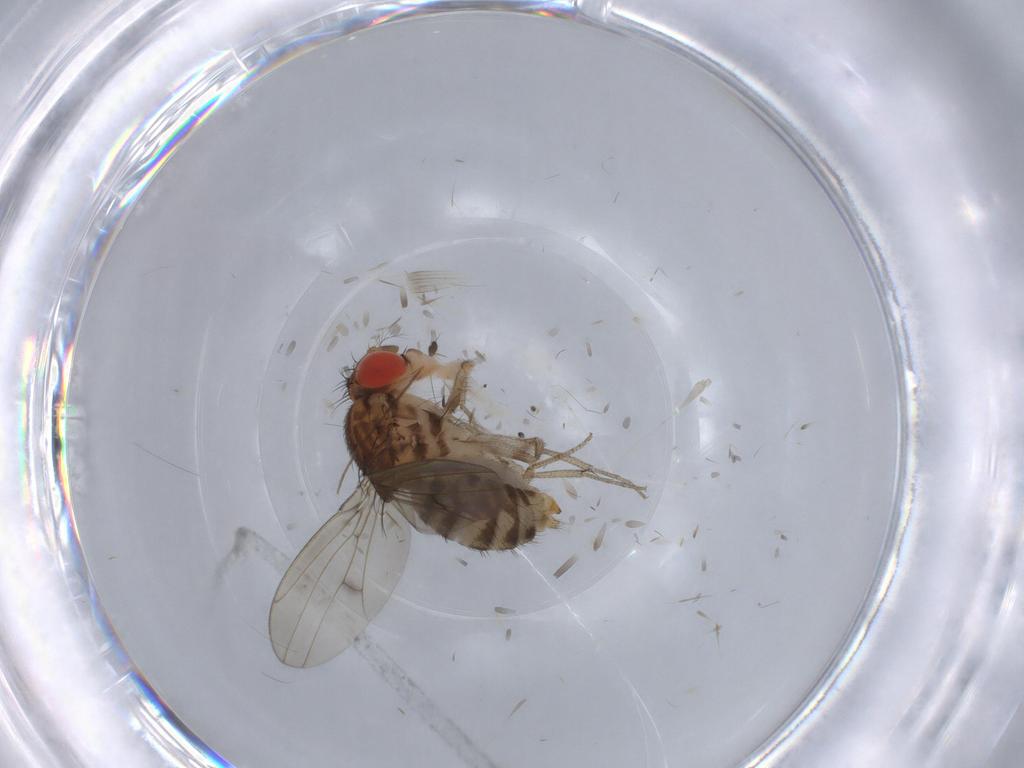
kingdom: Animalia
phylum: Arthropoda
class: Insecta
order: Diptera
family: Drosophilidae
